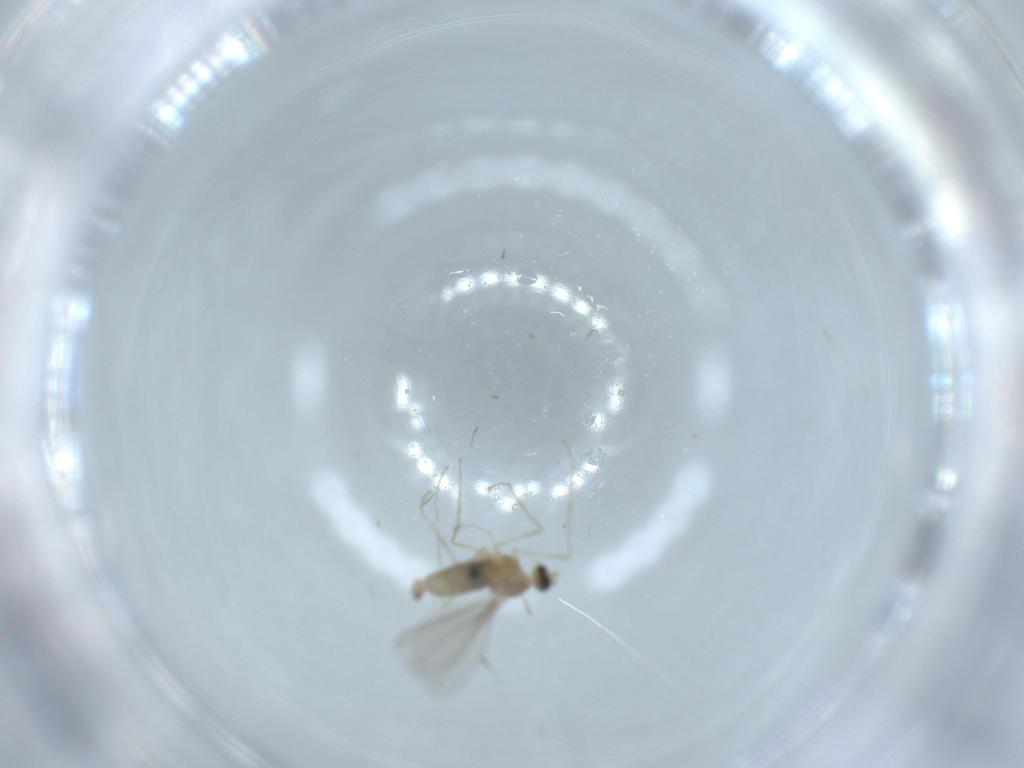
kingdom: Animalia
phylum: Arthropoda
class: Insecta
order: Diptera
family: Cecidomyiidae
